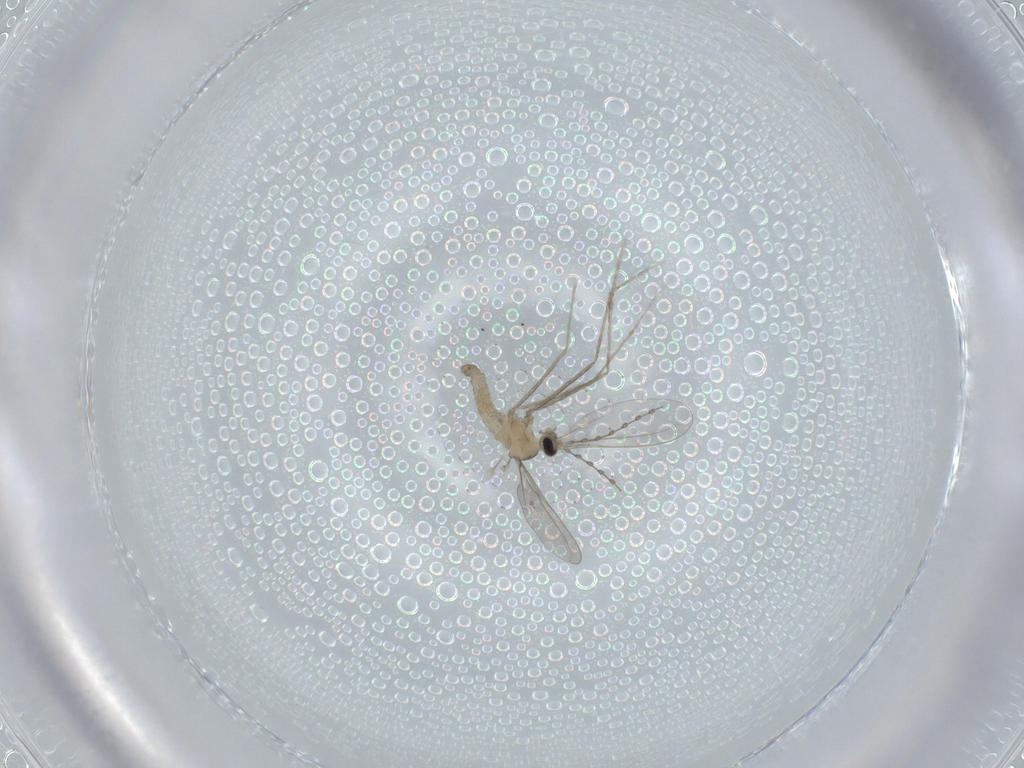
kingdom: Animalia
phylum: Arthropoda
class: Insecta
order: Diptera
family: Cecidomyiidae
